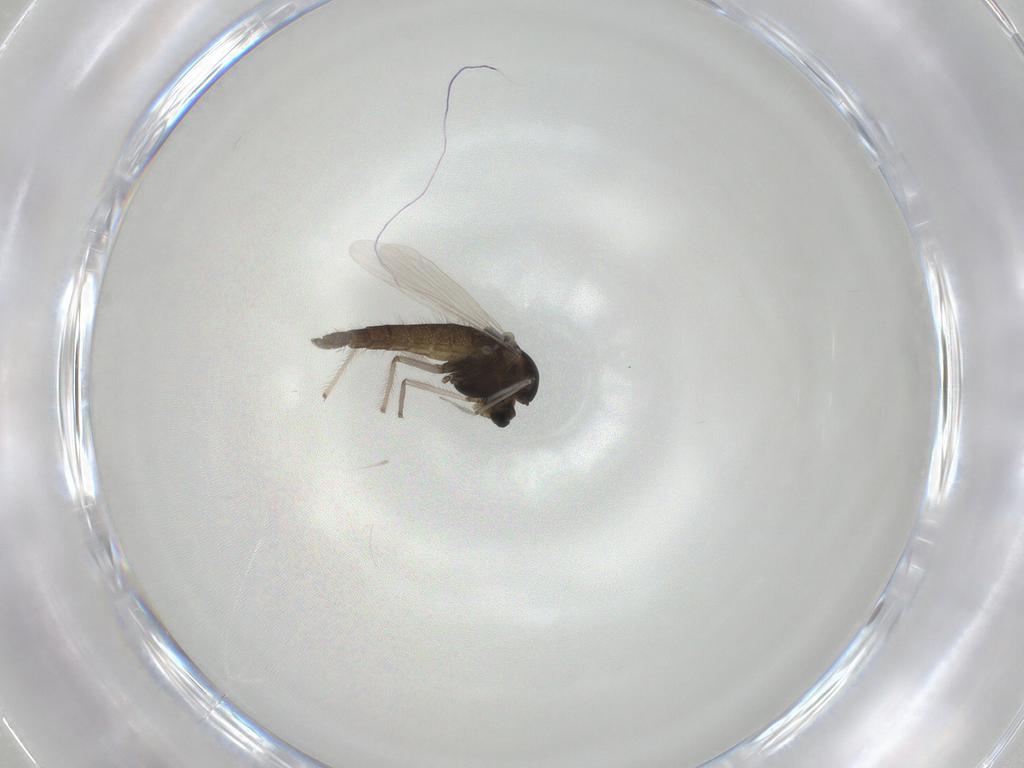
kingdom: Animalia
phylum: Arthropoda
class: Insecta
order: Diptera
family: Chironomidae
